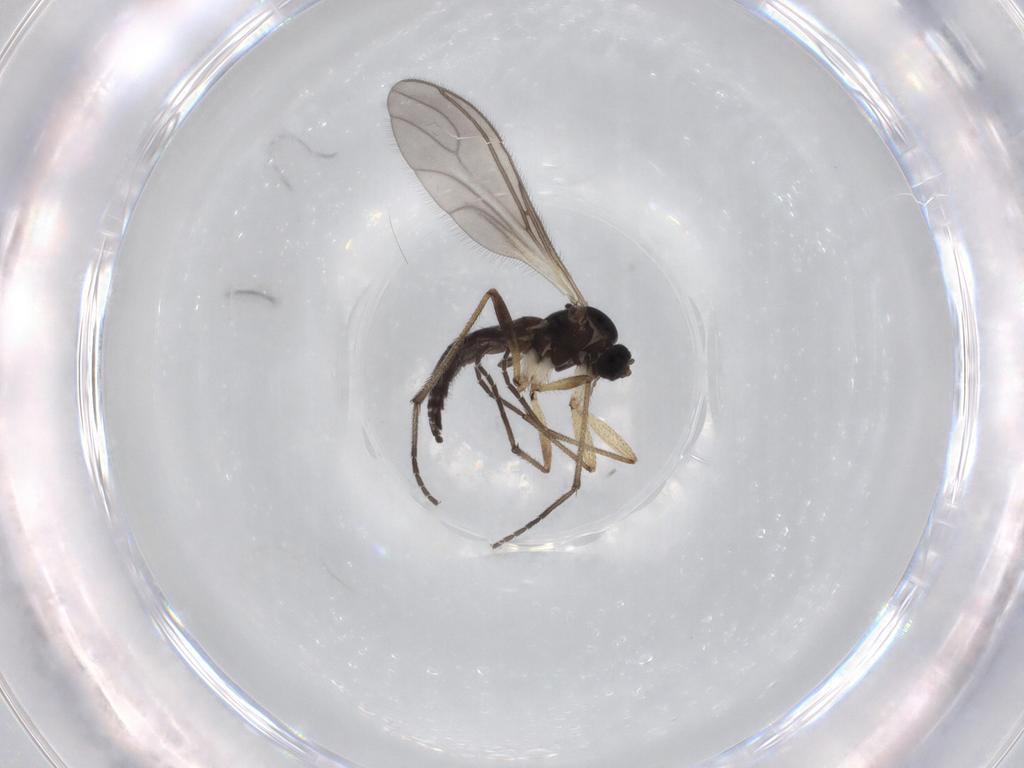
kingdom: Animalia
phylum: Arthropoda
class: Insecta
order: Diptera
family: Sciaridae
